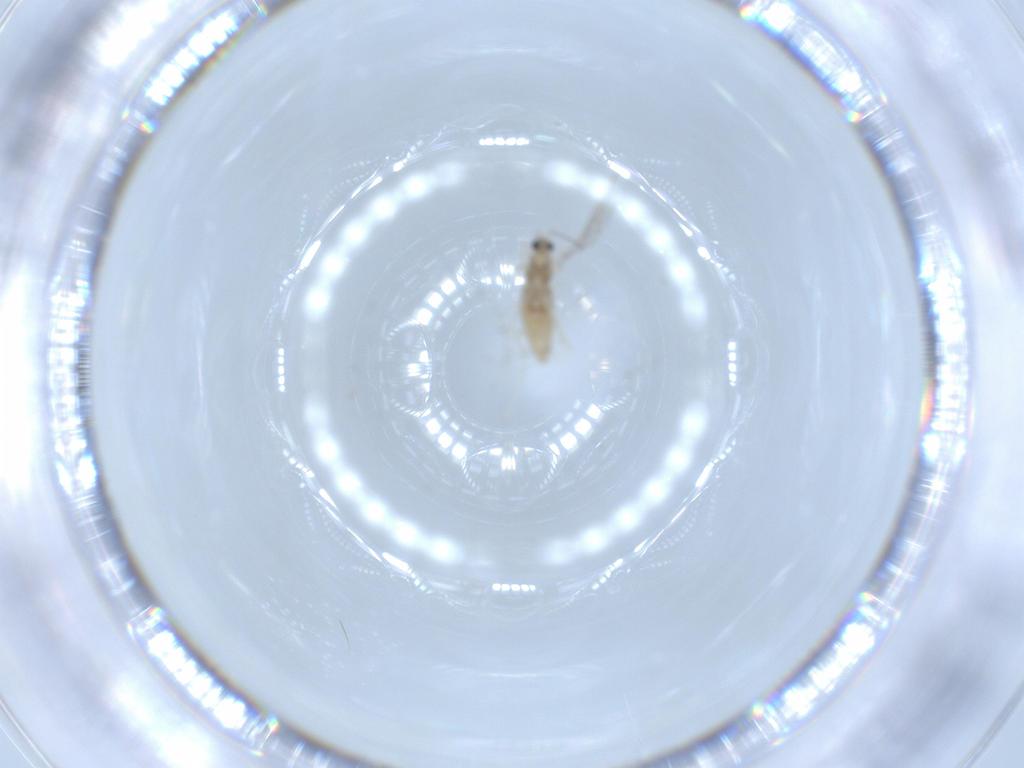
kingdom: Animalia
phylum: Arthropoda
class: Insecta
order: Diptera
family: Cecidomyiidae
